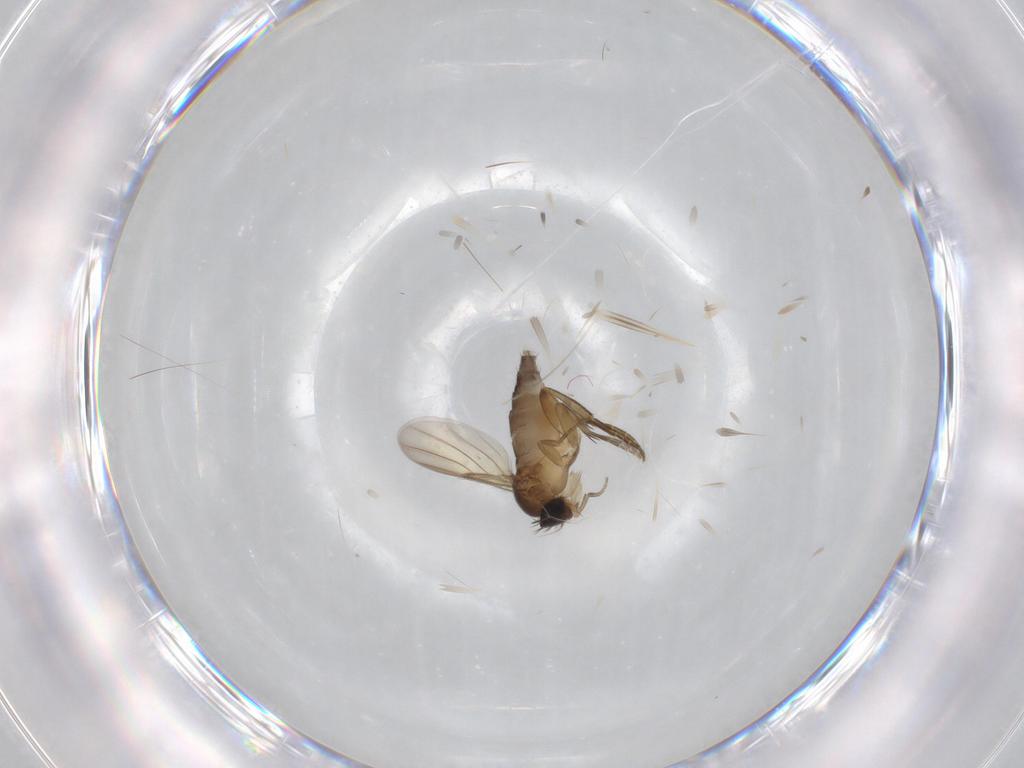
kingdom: Animalia
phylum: Arthropoda
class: Insecta
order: Diptera
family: Phoridae
